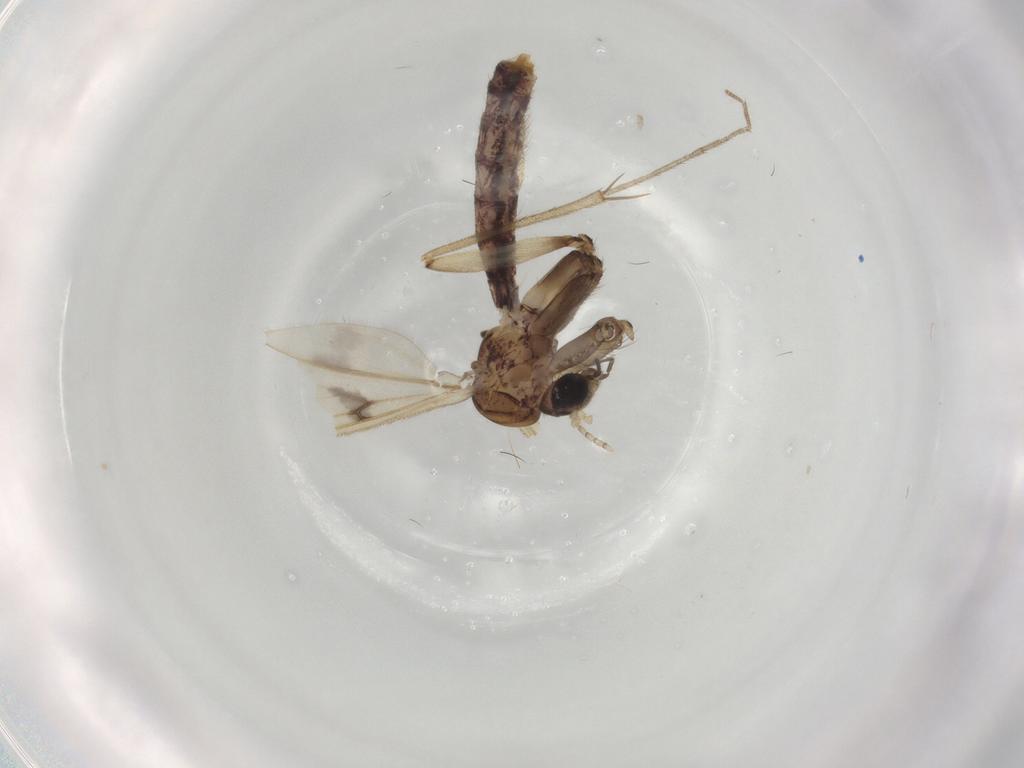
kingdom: Animalia
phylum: Arthropoda
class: Insecta
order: Diptera
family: Mycetophilidae
